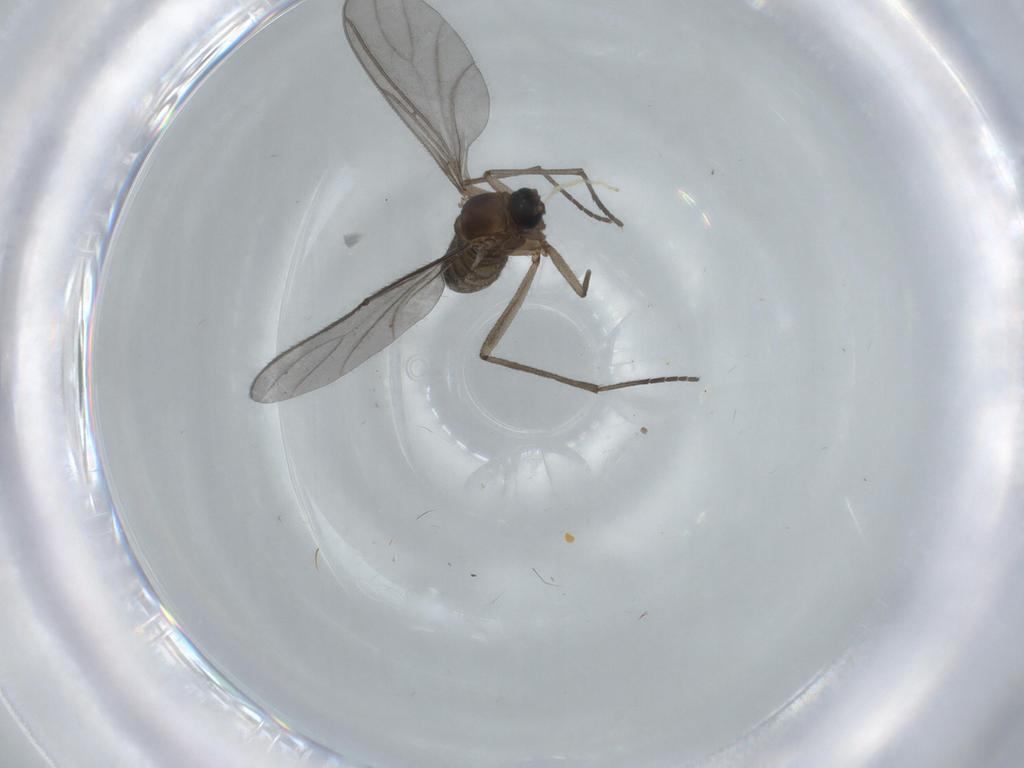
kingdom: Animalia
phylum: Arthropoda
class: Insecta
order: Diptera
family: Chironomidae
